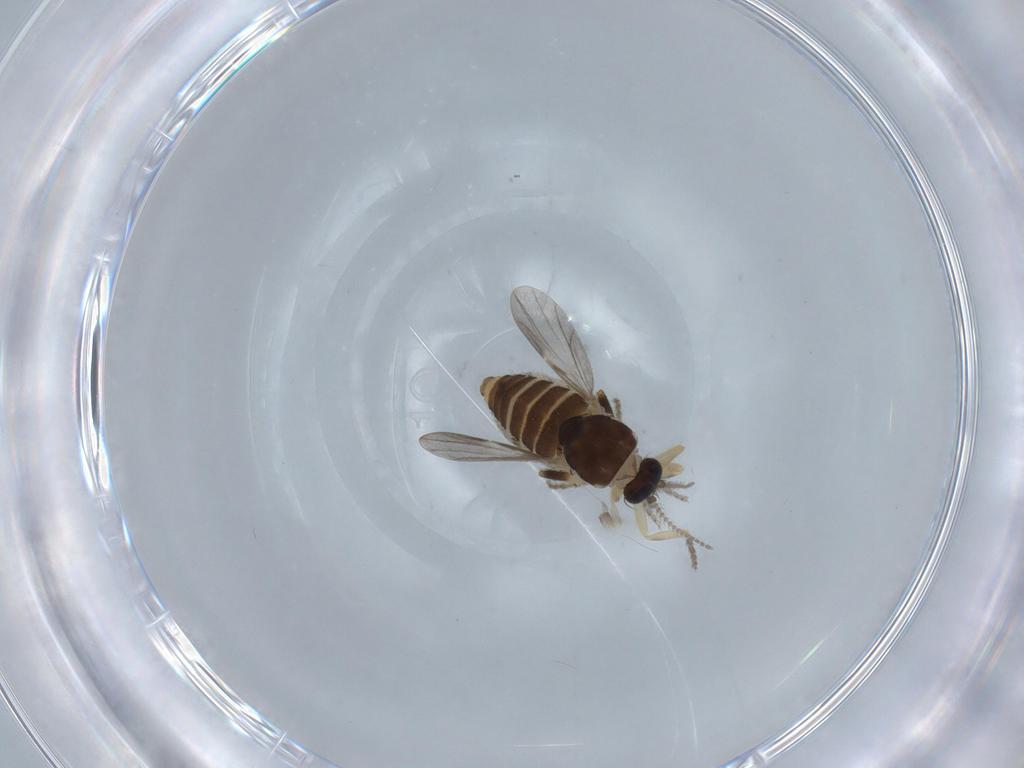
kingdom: Animalia
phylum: Arthropoda
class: Insecta
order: Diptera
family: Ceratopogonidae
